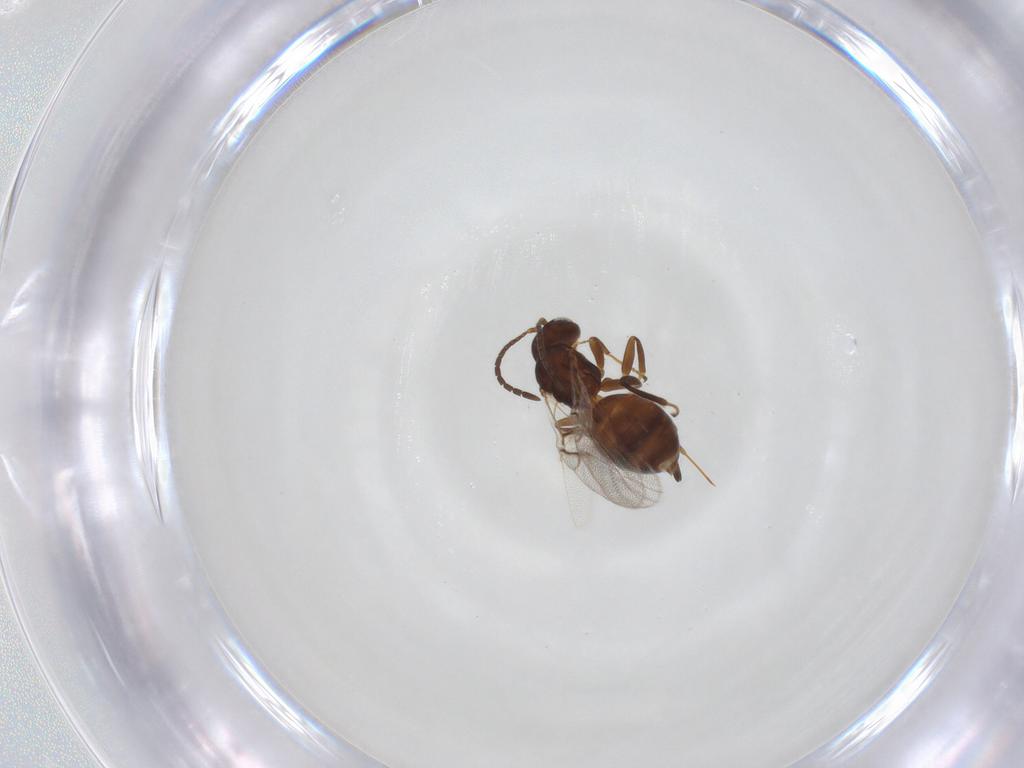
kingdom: Animalia
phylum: Arthropoda
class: Insecta
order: Hymenoptera
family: Cynipidae
